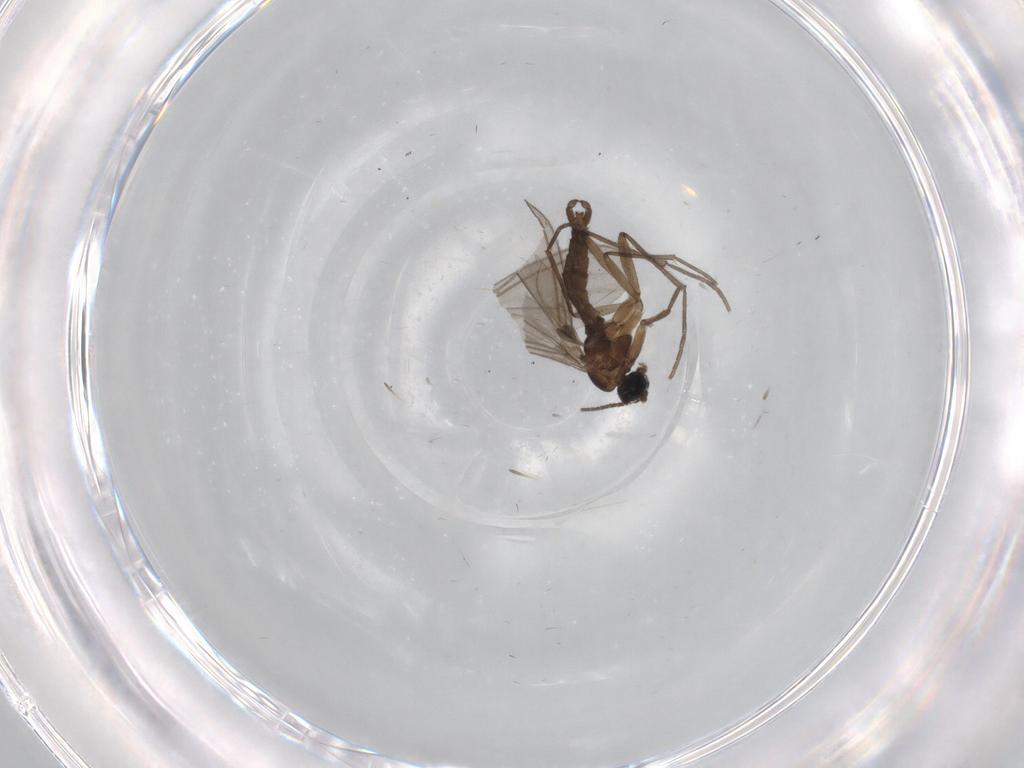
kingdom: Animalia
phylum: Arthropoda
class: Insecta
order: Diptera
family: Sciaridae
